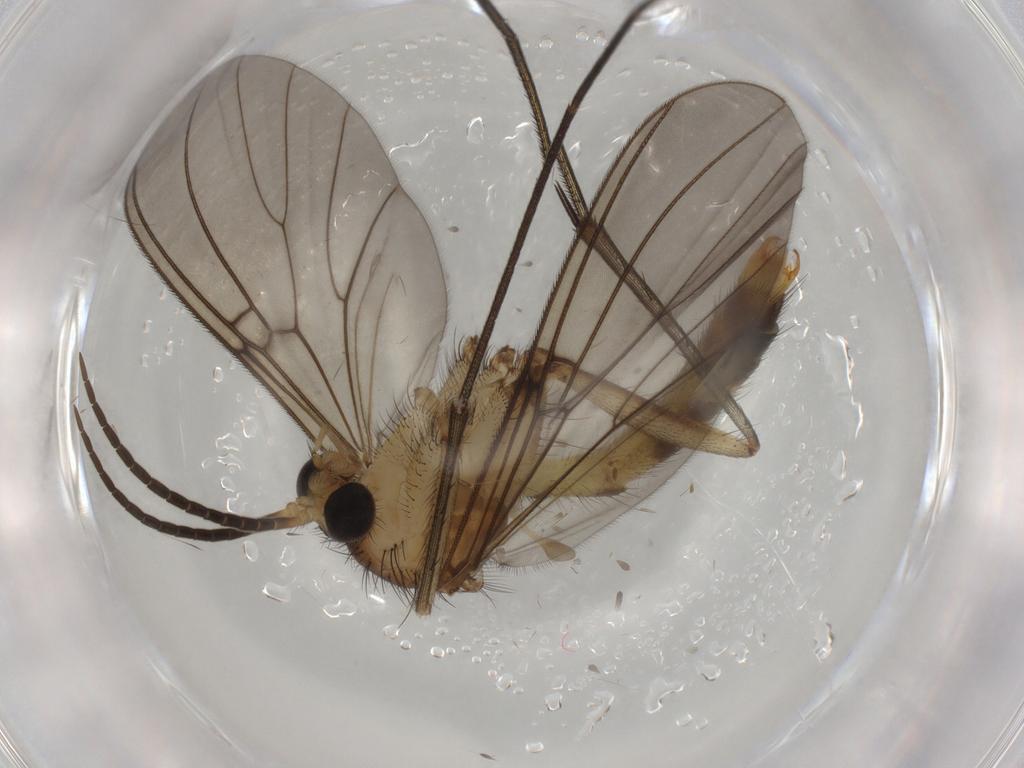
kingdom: Animalia
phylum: Arthropoda
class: Insecta
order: Diptera
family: Mycetophilidae
